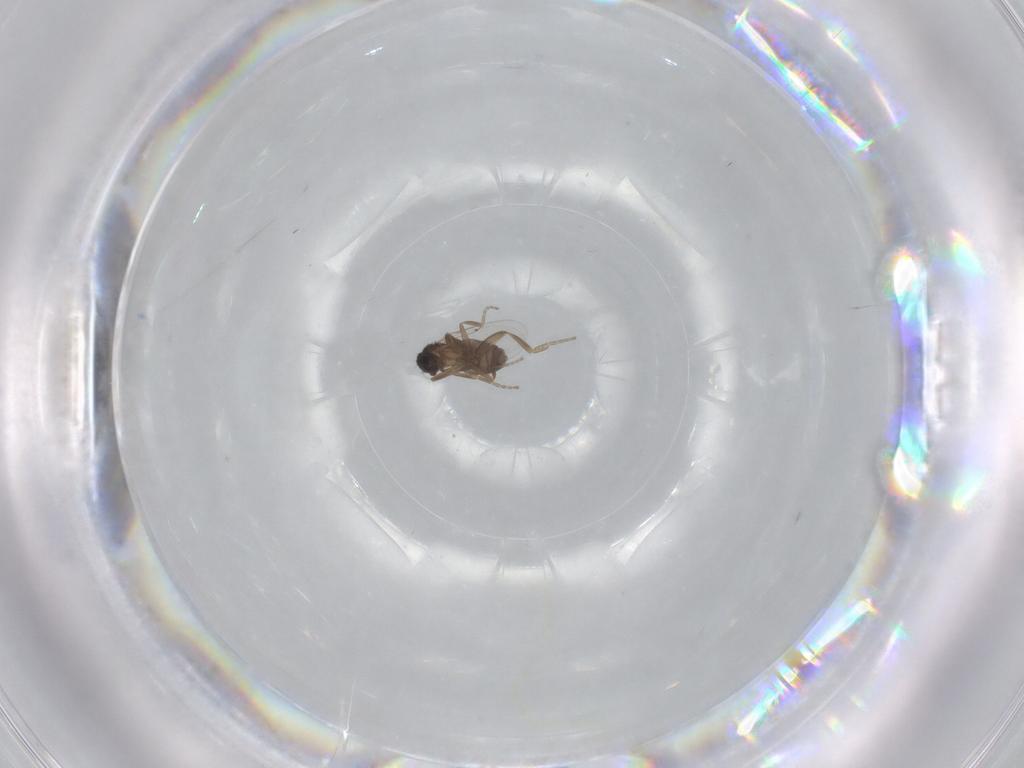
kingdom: Animalia
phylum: Arthropoda
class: Insecta
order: Diptera
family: Phoridae
